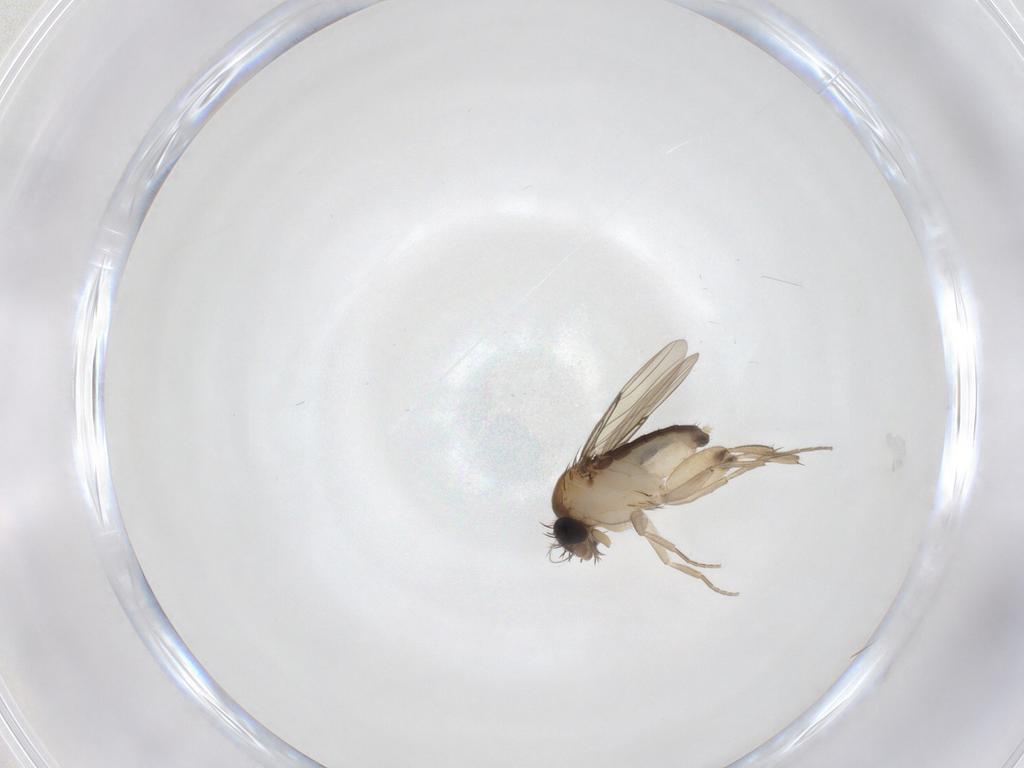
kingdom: Animalia
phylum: Arthropoda
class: Insecta
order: Diptera
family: Phoridae
